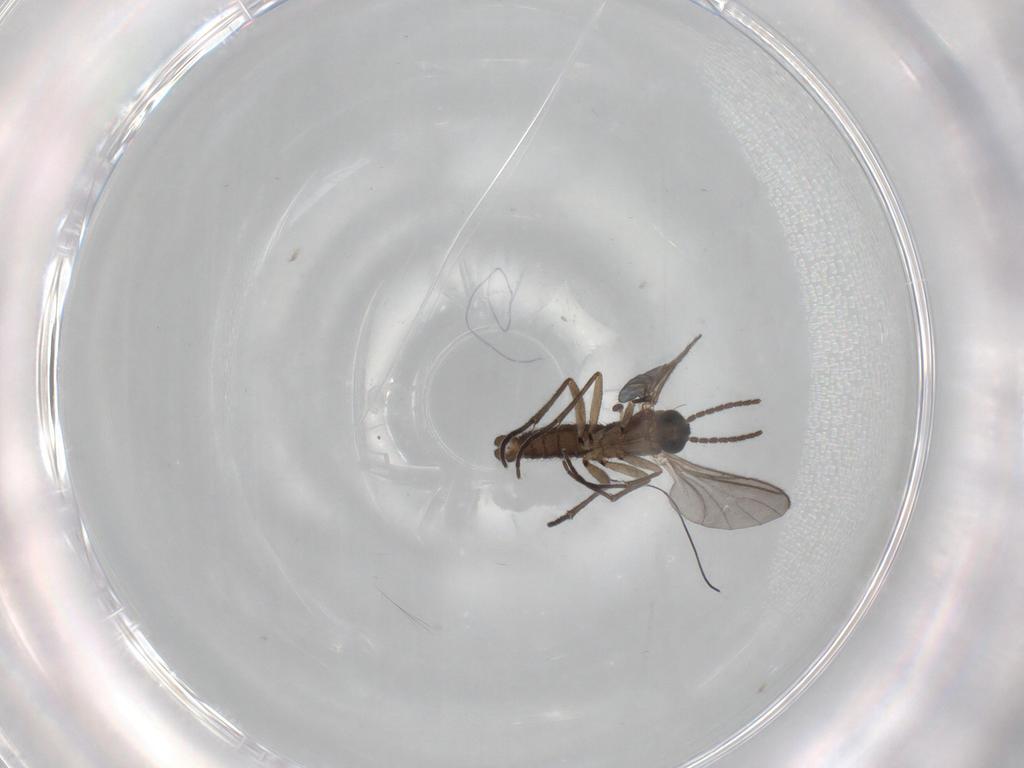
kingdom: Animalia
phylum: Arthropoda
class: Insecta
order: Diptera
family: Sciaridae
